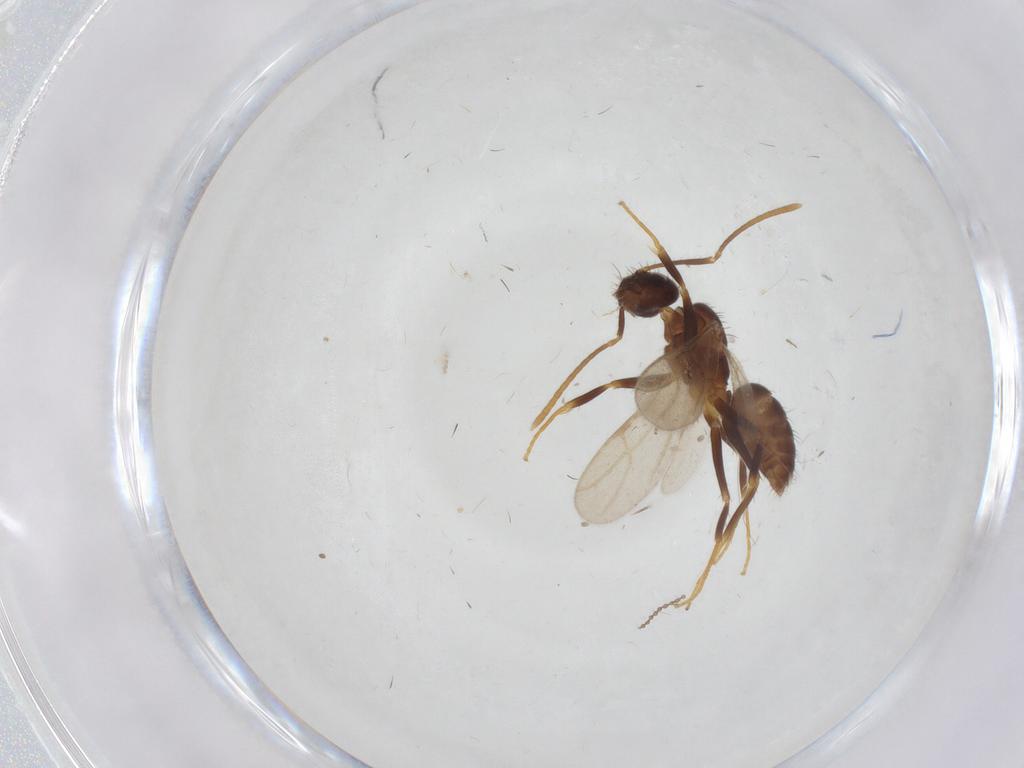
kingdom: Animalia
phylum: Arthropoda
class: Insecta
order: Hymenoptera
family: Formicidae
